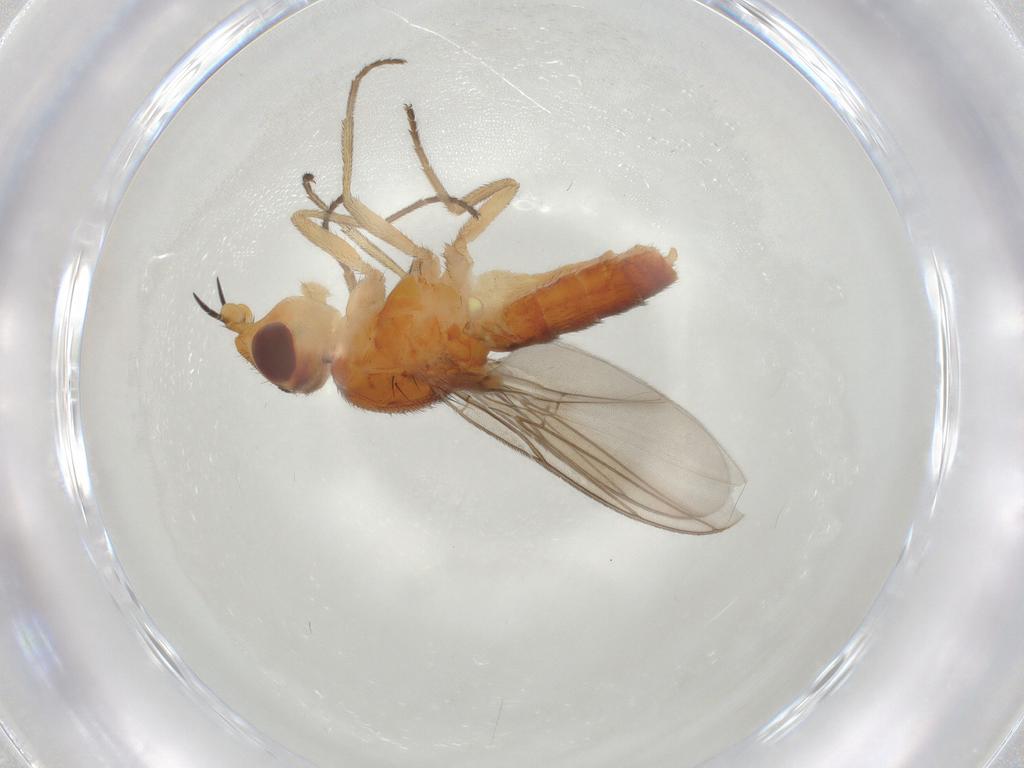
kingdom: Animalia
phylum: Arthropoda
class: Insecta
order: Diptera
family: Chloropidae
